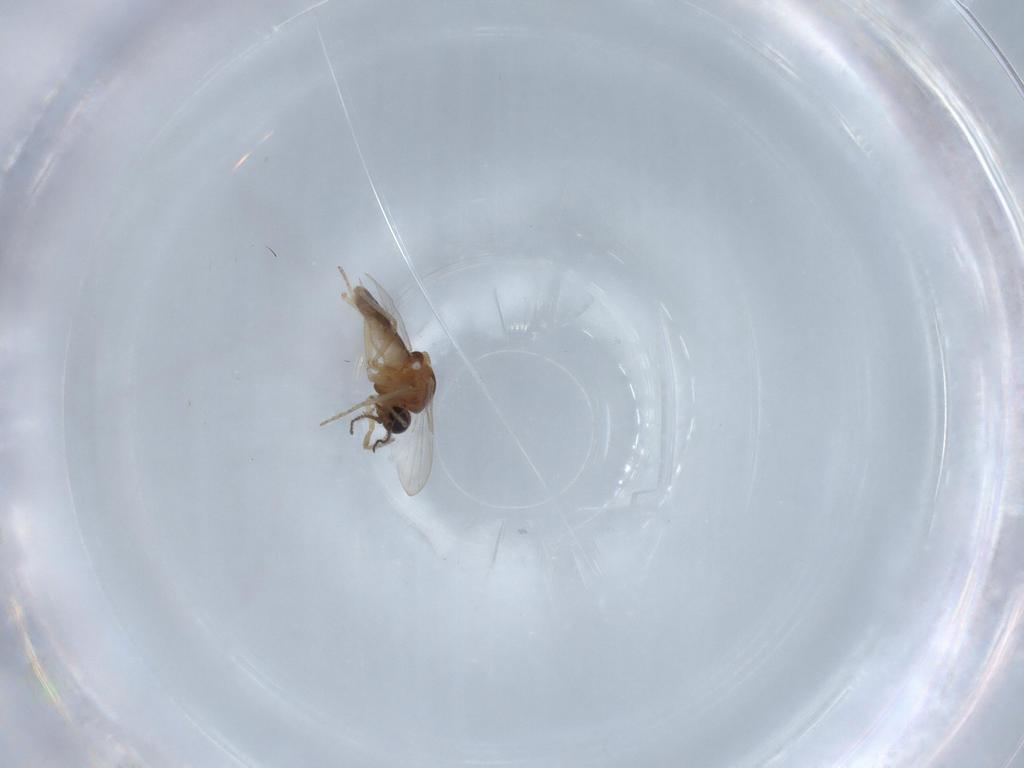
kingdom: Animalia
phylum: Arthropoda
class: Insecta
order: Diptera
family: Ceratopogonidae
